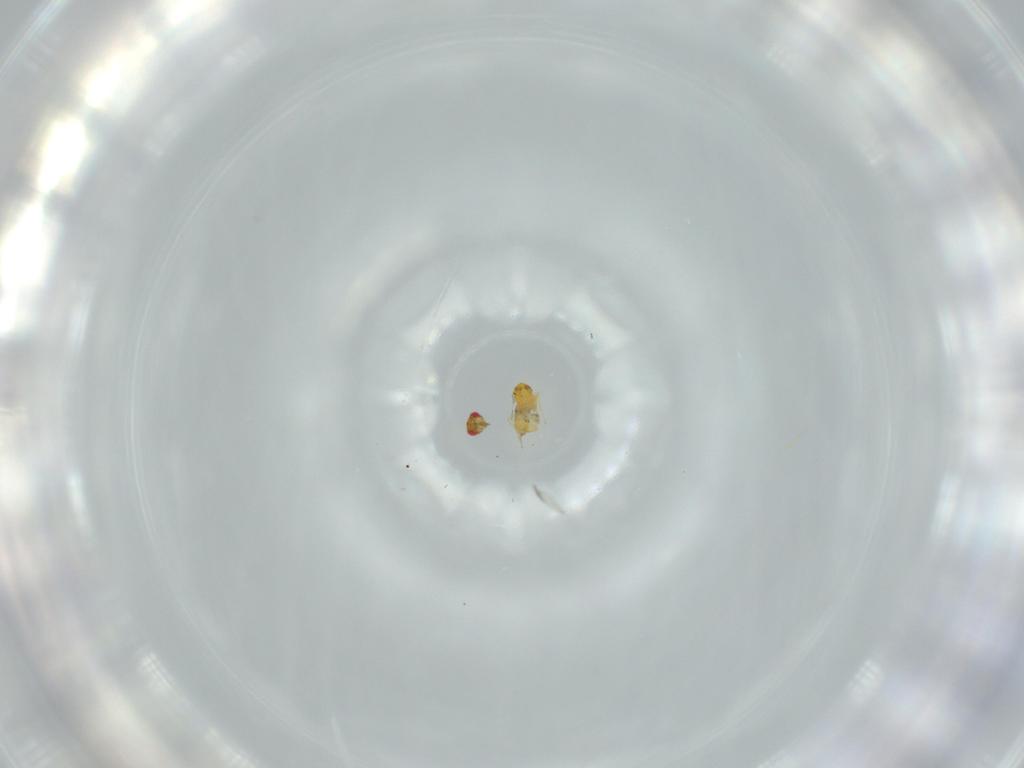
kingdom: Animalia
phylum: Arthropoda
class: Insecta
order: Hymenoptera
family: Trichogrammatidae
